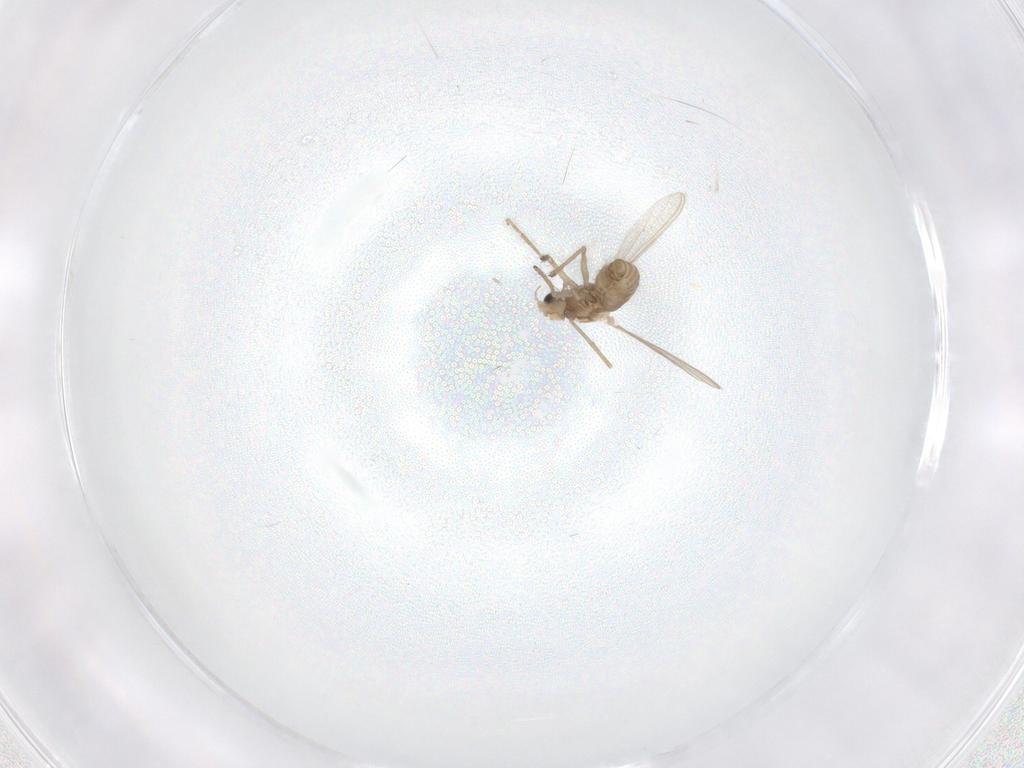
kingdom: Animalia
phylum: Arthropoda
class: Insecta
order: Diptera
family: Chironomidae
